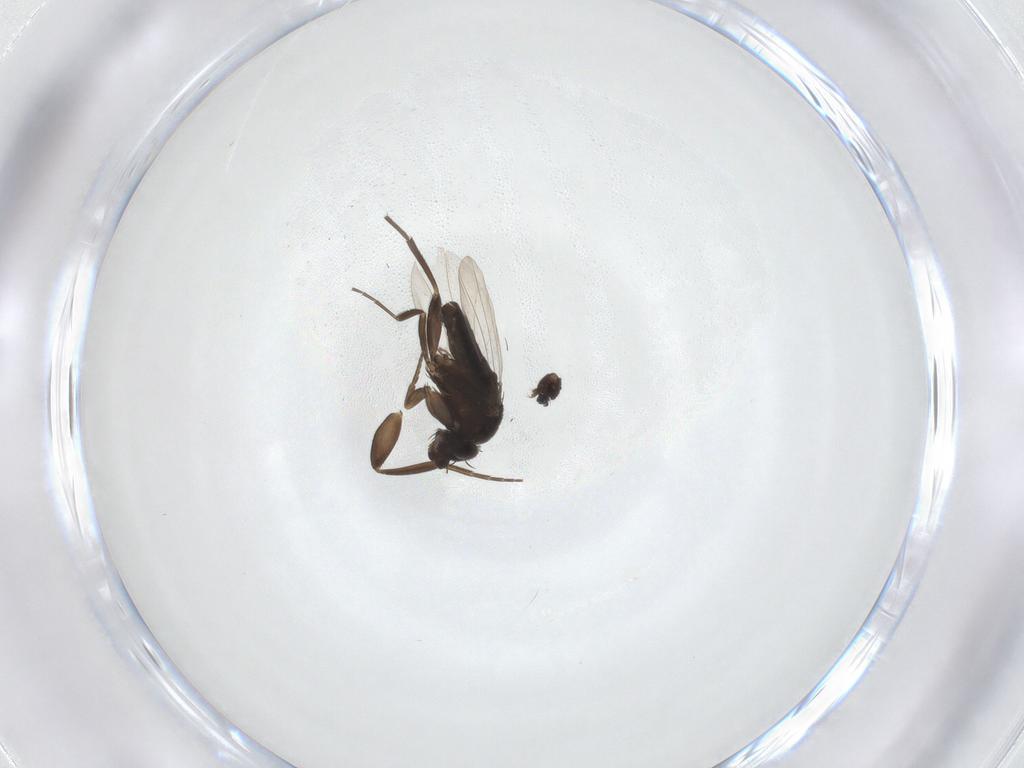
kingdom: Animalia
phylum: Arthropoda
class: Insecta
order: Diptera
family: Phoridae
